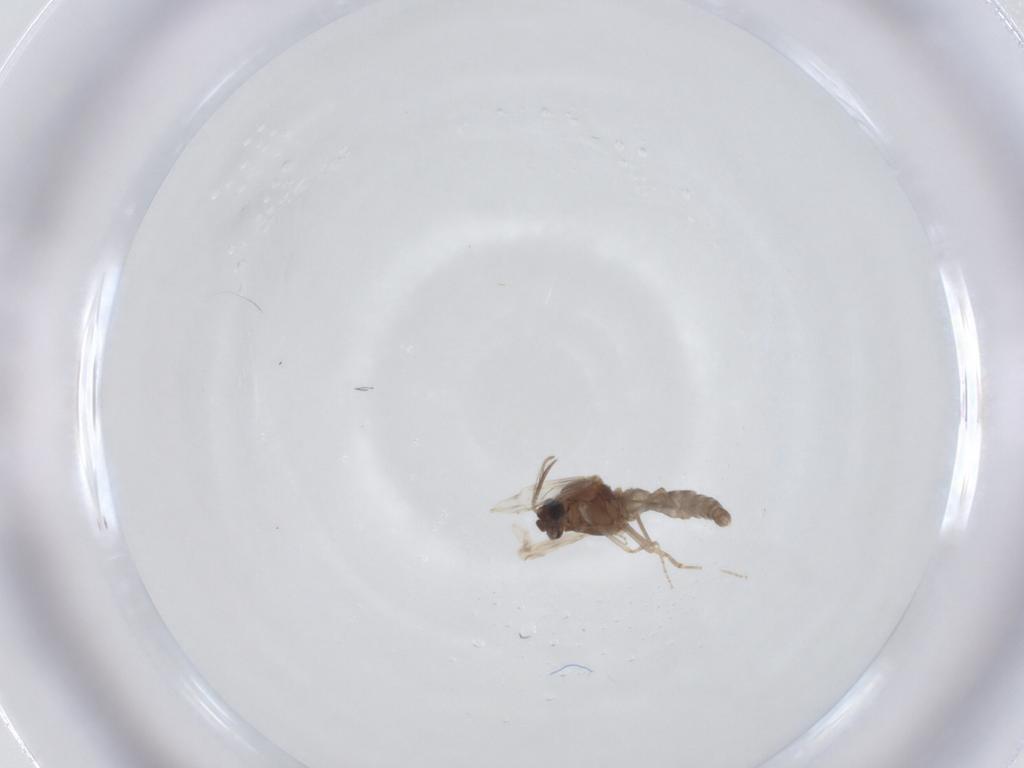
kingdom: Animalia
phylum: Arthropoda
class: Insecta
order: Diptera
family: Ceratopogonidae
